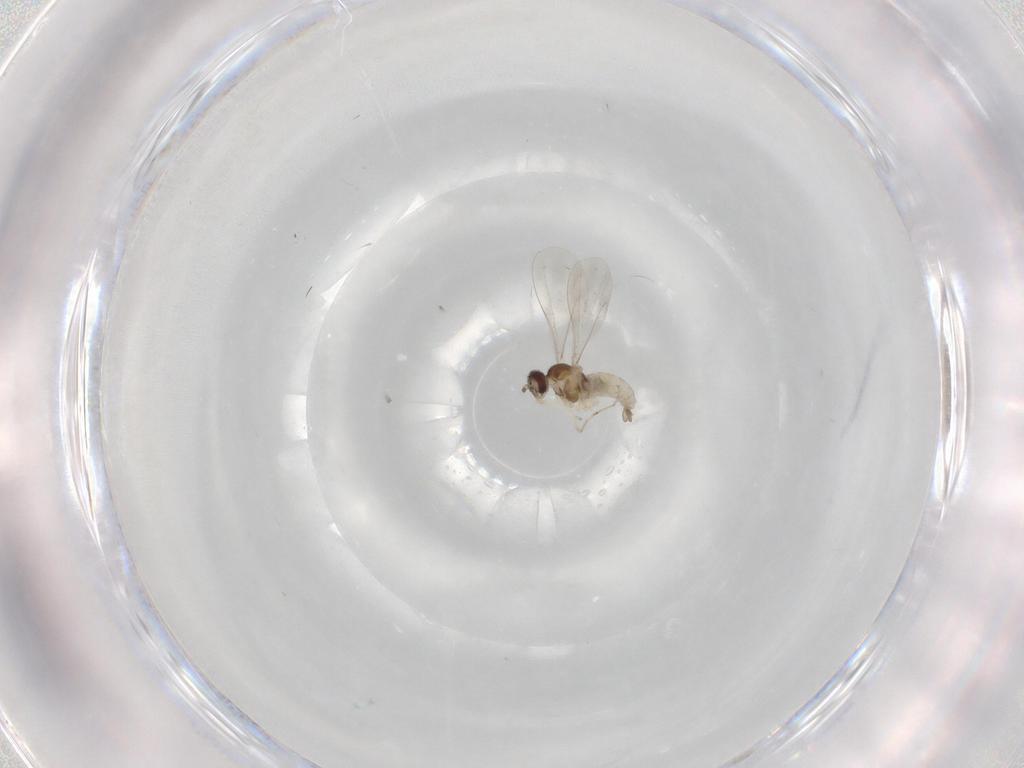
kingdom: Animalia
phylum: Arthropoda
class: Insecta
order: Diptera
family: Cecidomyiidae
